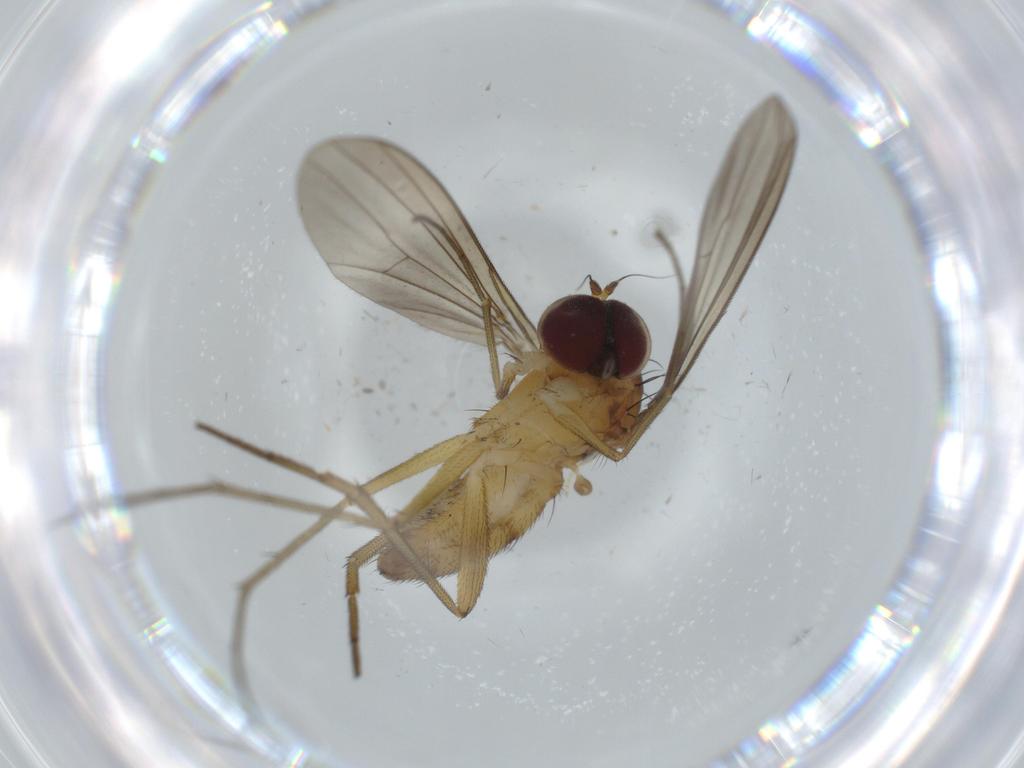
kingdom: Animalia
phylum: Arthropoda
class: Insecta
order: Diptera
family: Dolichopodidae
